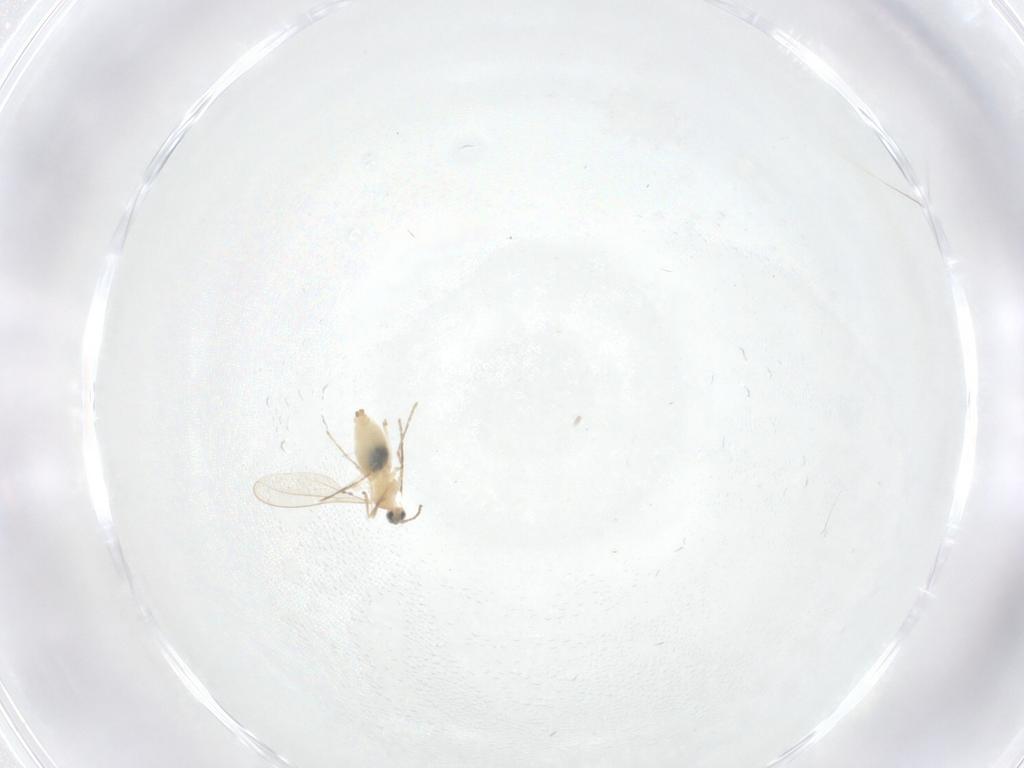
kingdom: Animalia
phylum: Arthropoda
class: Insecta
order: Diptera
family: Cecidomyiidae
